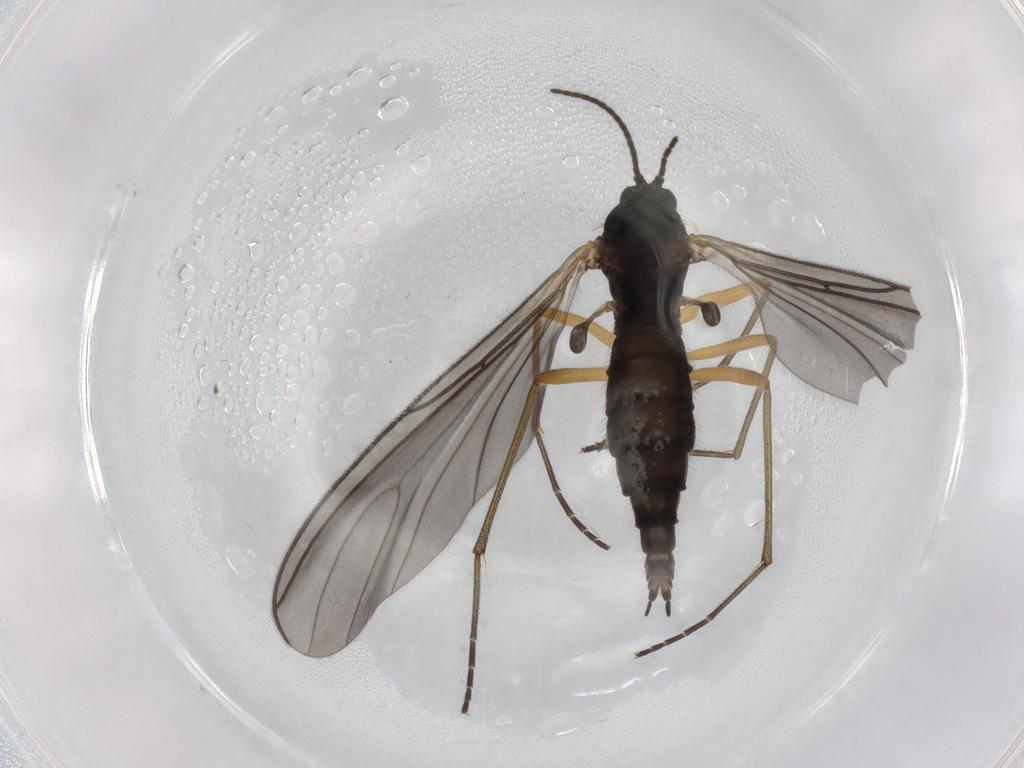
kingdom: Animalia
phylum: Arthropoda
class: Insecta
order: Diptera
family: Sciaridae
